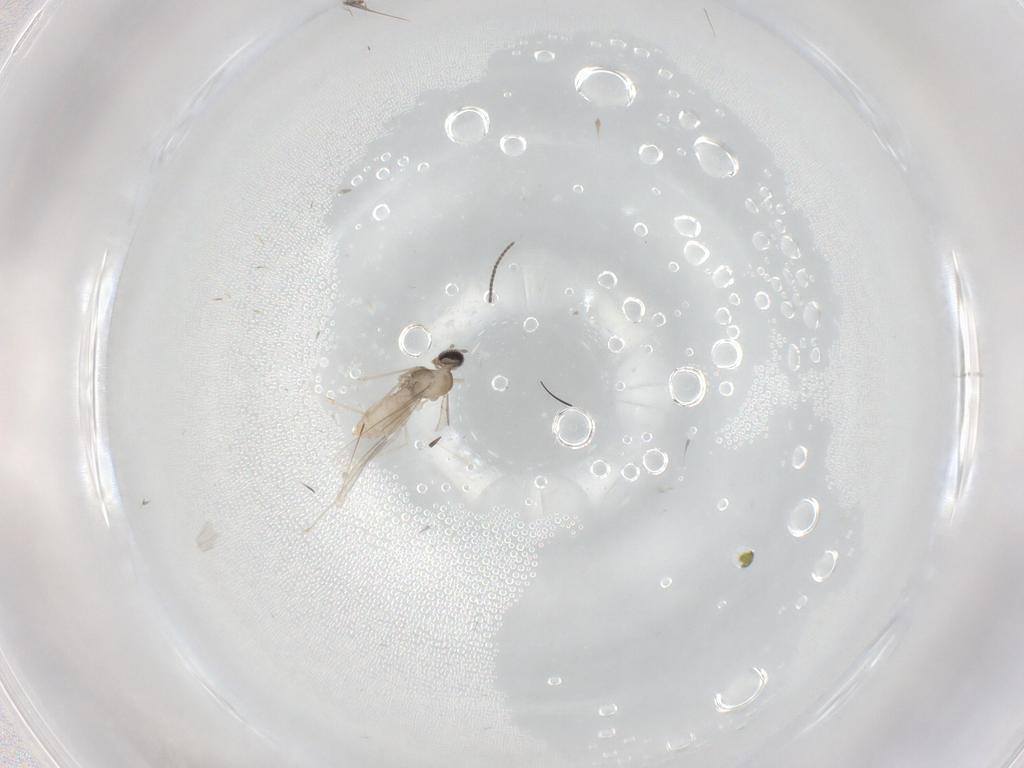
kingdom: Animalia
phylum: Arthropoda
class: Insecta
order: Diptera
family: Sciaridae
